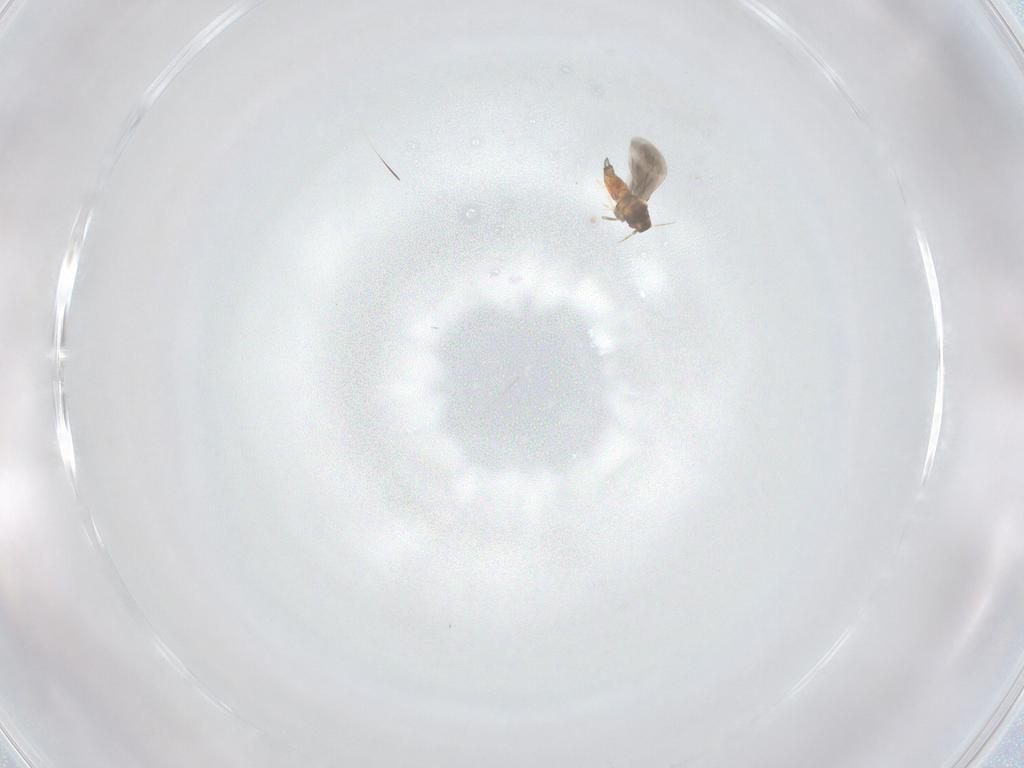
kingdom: Animalia
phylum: Arthropoda
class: Insecta
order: Hemiptera
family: Aleyrodidae
